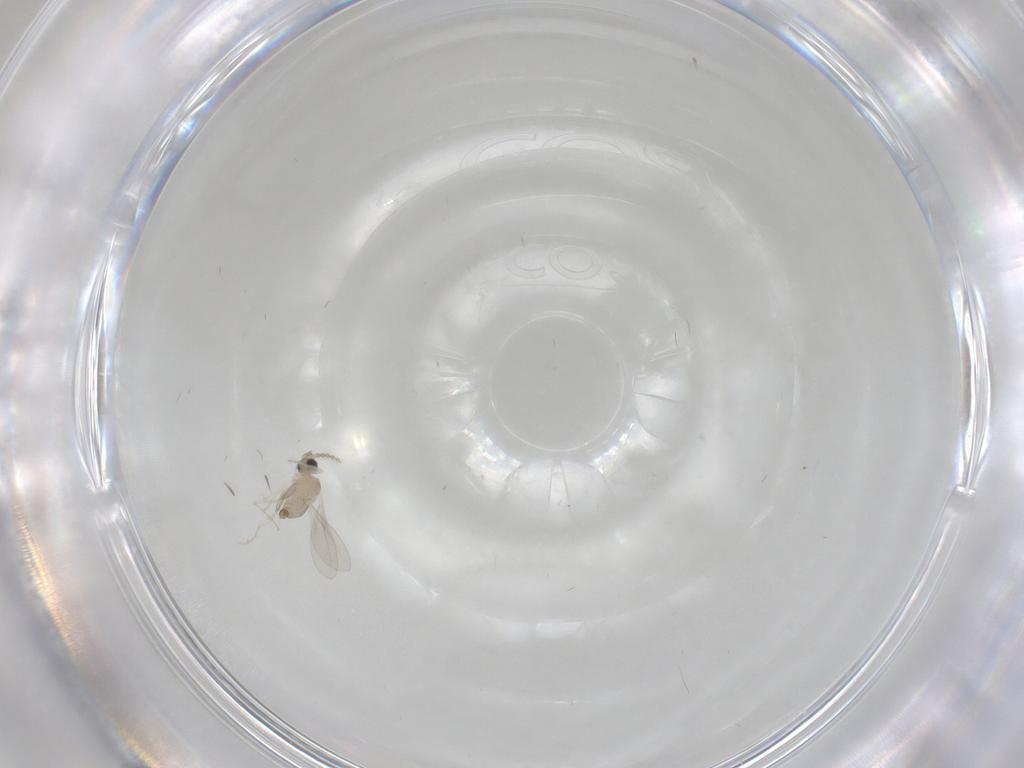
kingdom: Animalia
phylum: Arthropoda
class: Insecta
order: Diptera
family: Cecidomyiidae
